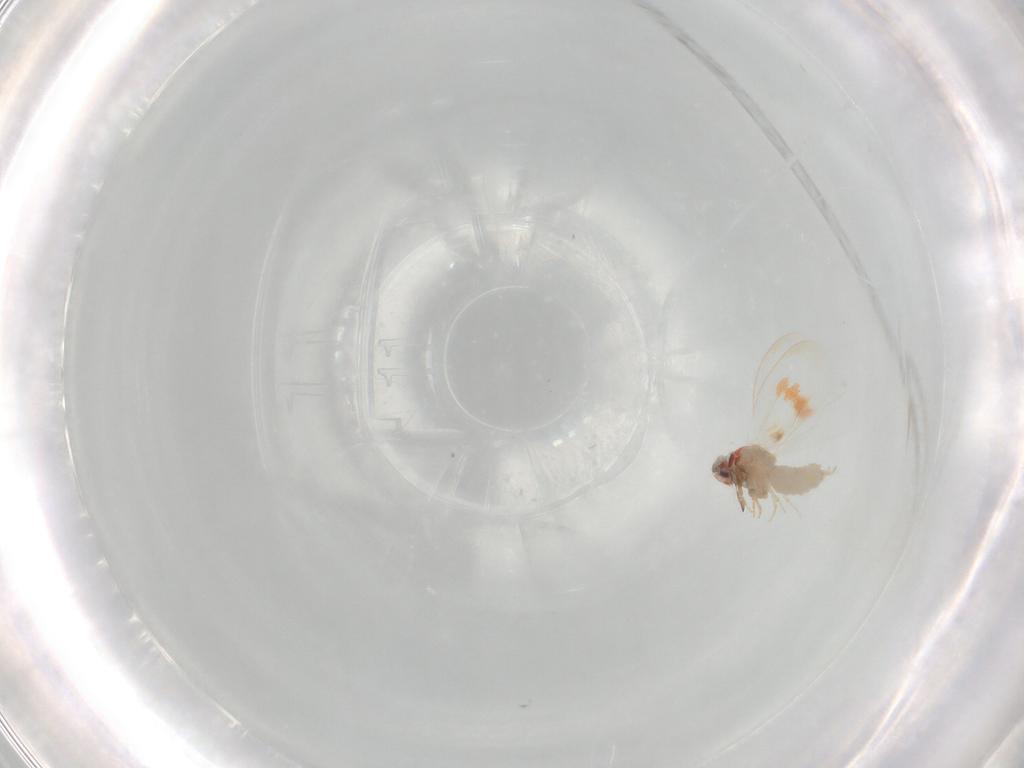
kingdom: Animalia
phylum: Arthropoda
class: Insecta
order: Hemiptera
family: Aleyrodidae
